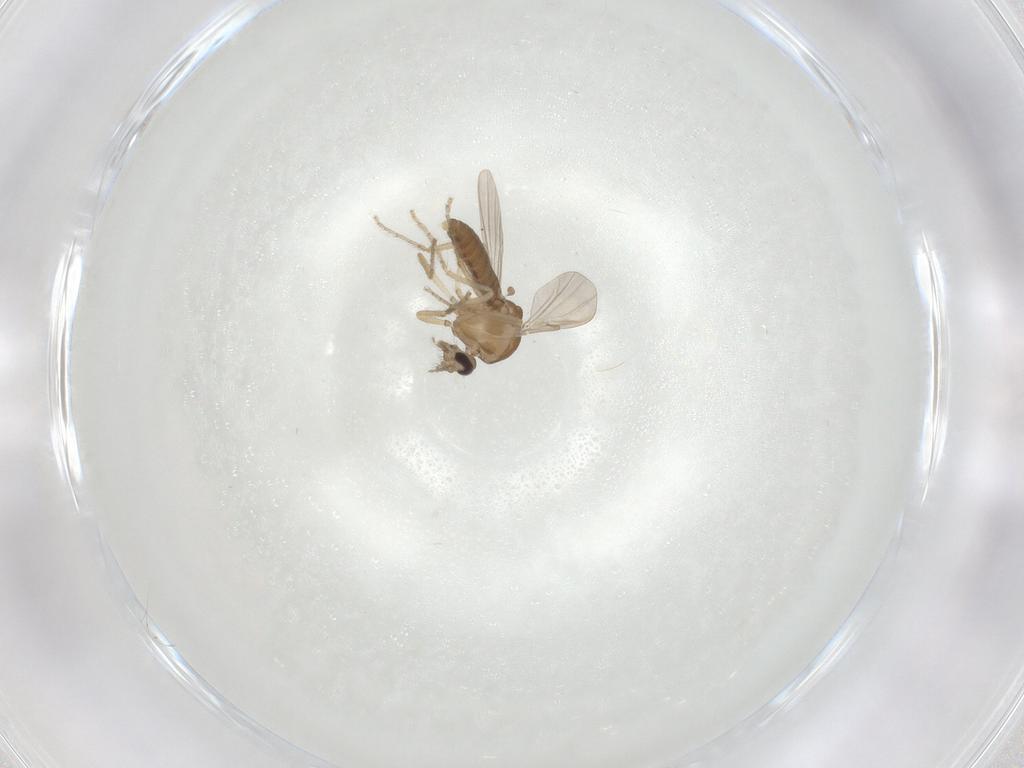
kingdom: Animalia
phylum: Arthropoda
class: Insecta
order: Diptera
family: Ceratopogonidae
